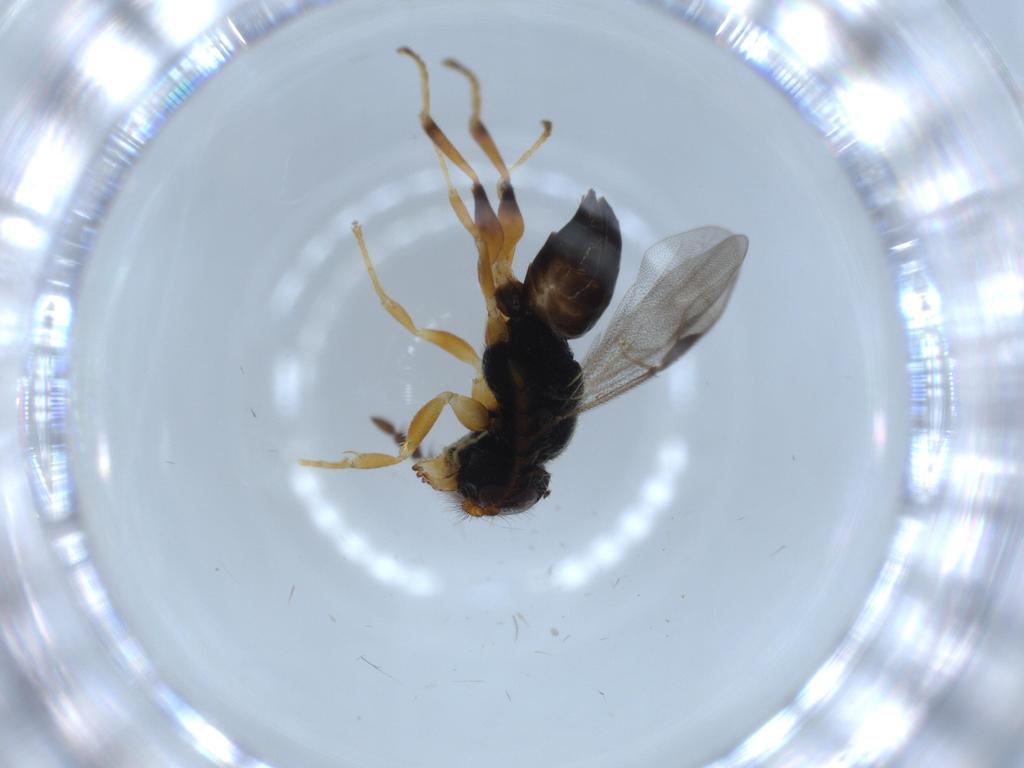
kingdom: Animalia
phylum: Arthropoda
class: Insecta
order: Hymenoptera
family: Dryinidae
